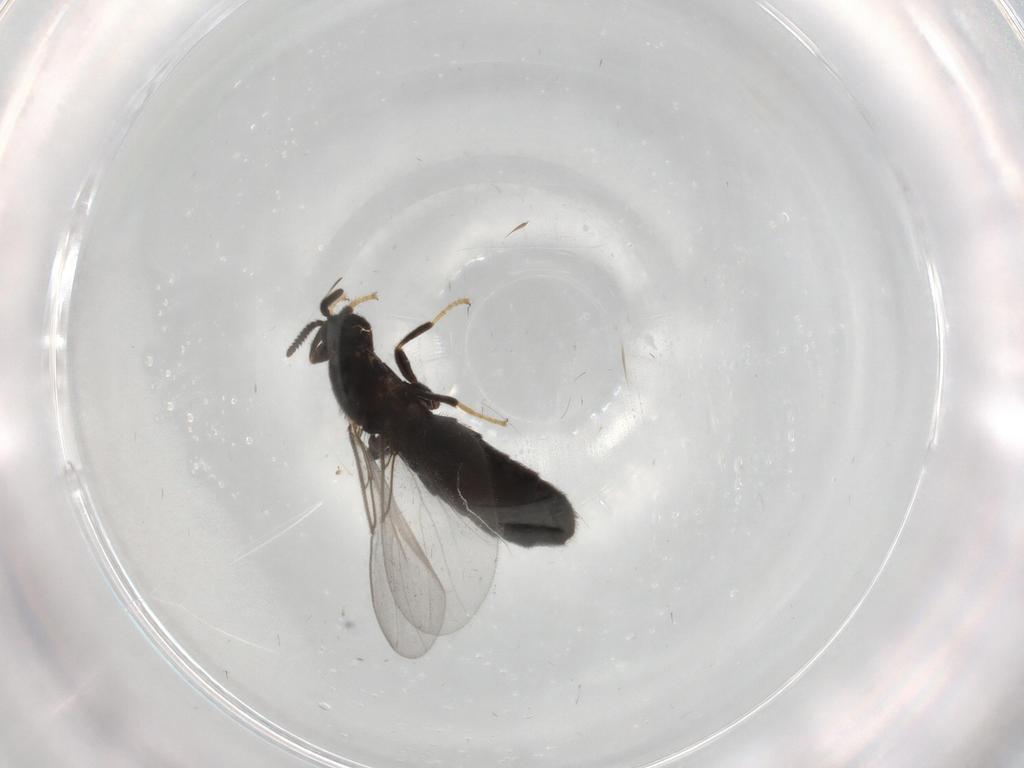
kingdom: Animalia
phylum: Arthropoda
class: Insecta
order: Diptera
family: Scatopsidae
